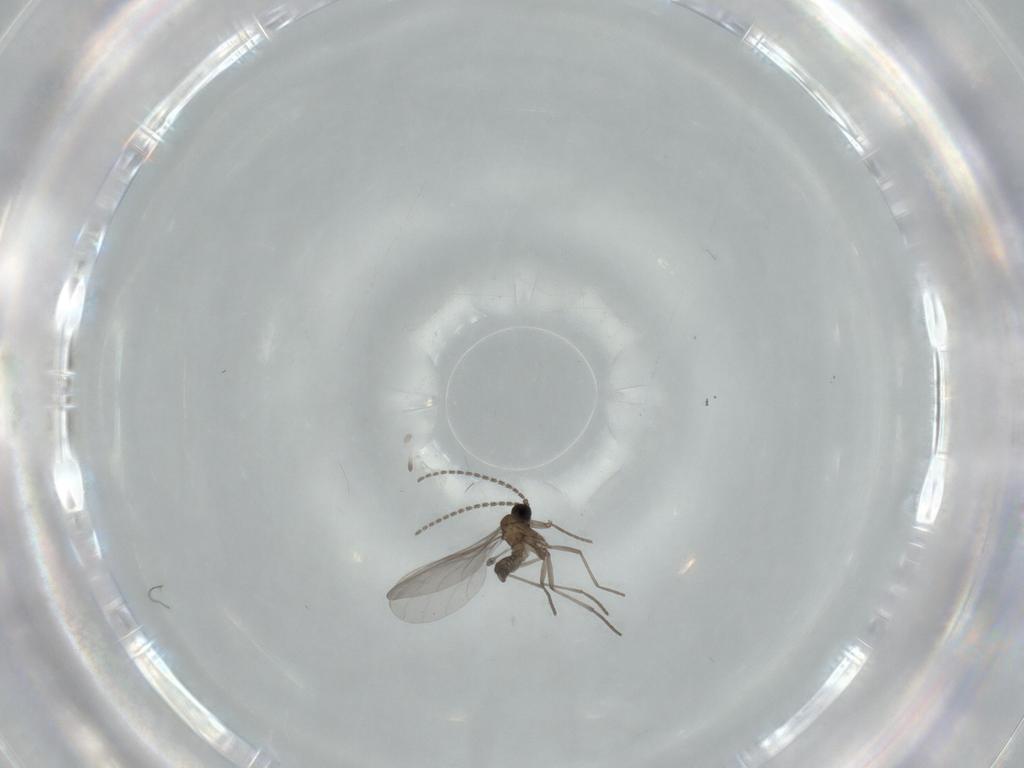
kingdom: Animalia
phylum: Arthropoda
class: Insecta
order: Diptera
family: Sciaridae
